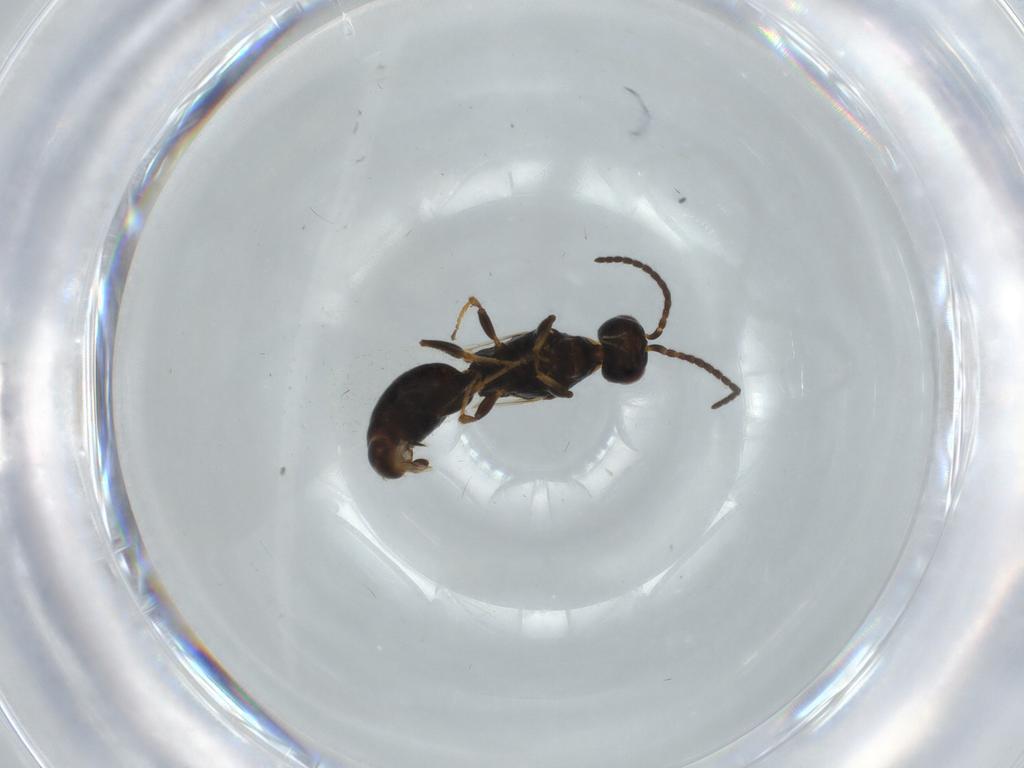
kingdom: Animalia
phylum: Arthropoda
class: Insecta
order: Hymenoptera
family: Bethylidae
